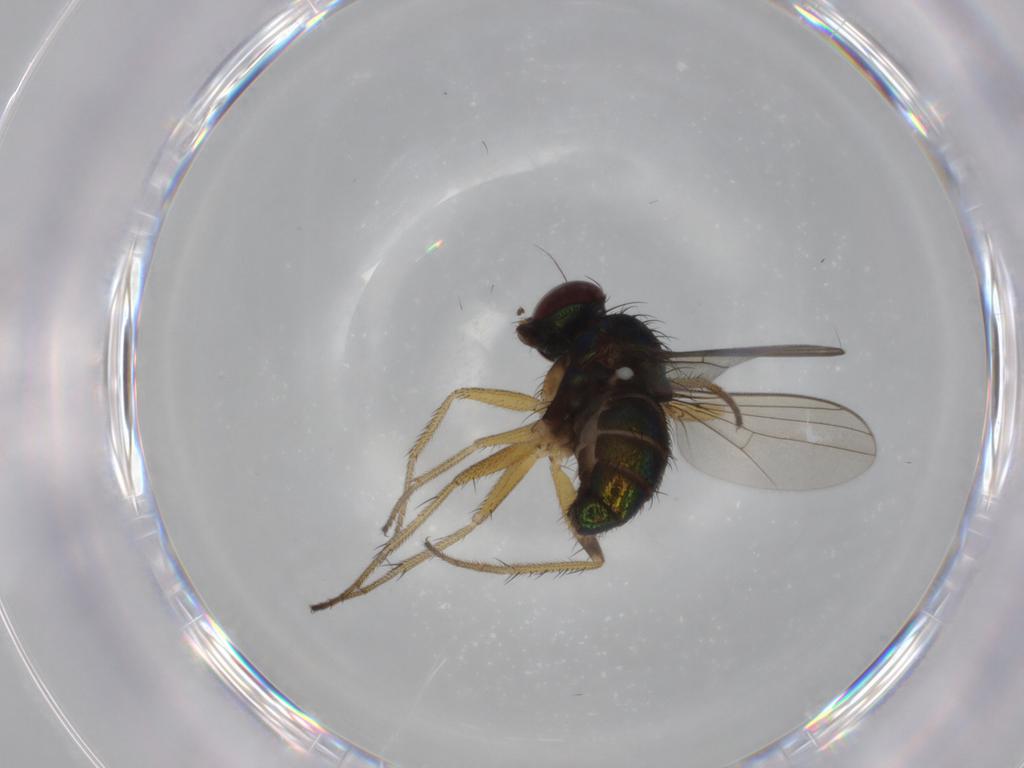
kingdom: Animalia
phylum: Arthropoda
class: Insecta
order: Diptera
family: Dolichopodidae
